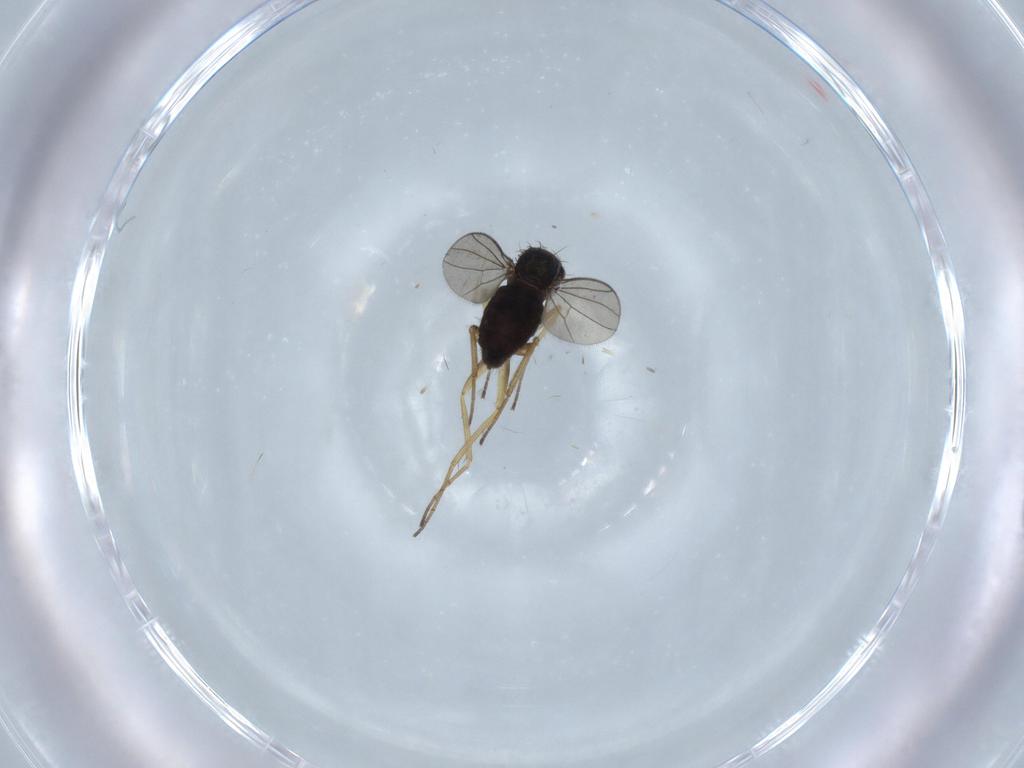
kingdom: Animalia
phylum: Arthropoda
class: Insecta
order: Diptera
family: Dolichopodidae
